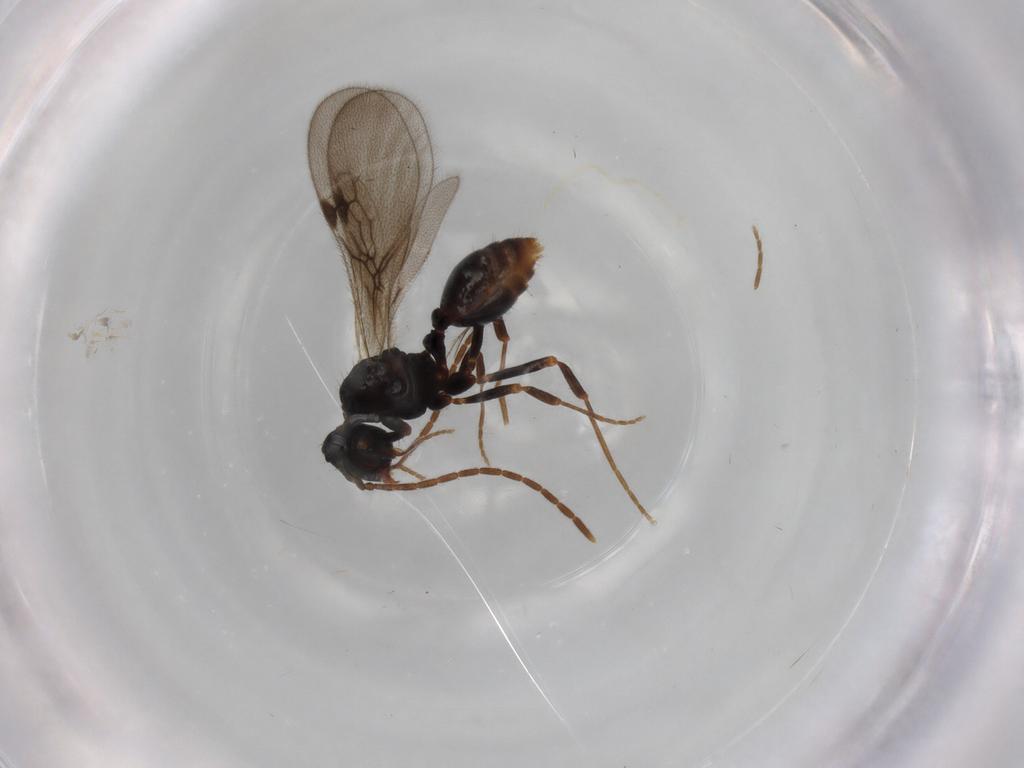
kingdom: Animalia
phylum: Arthropoda
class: Insecta
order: Hymenoptera
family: Formicidae
